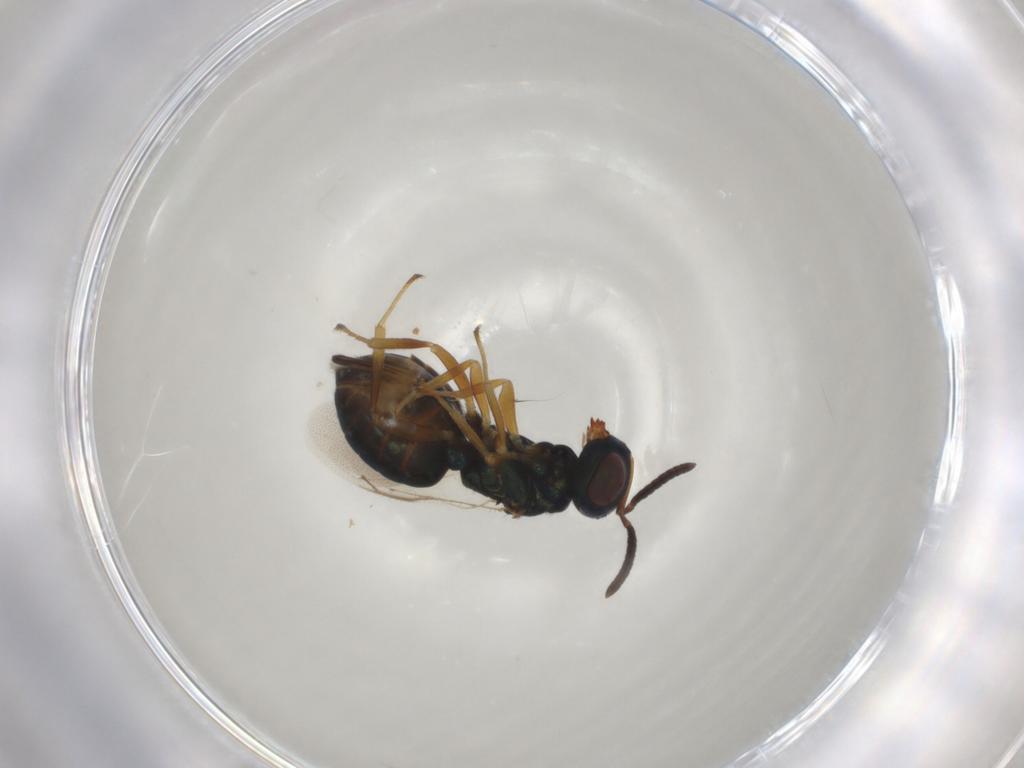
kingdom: Animalia
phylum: Arthropoda
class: Insecta
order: Hymenoptera
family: Pteromalidae
